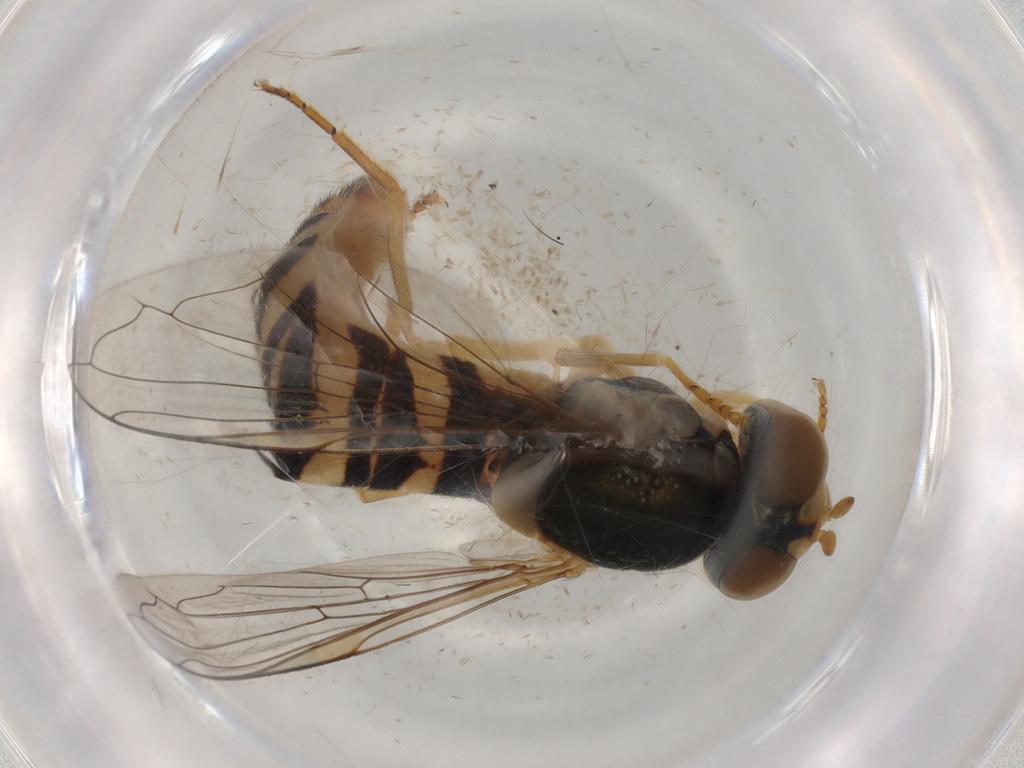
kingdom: Animalia
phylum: Arthropoda
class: Insecta
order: Diptera
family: Syrphidae
